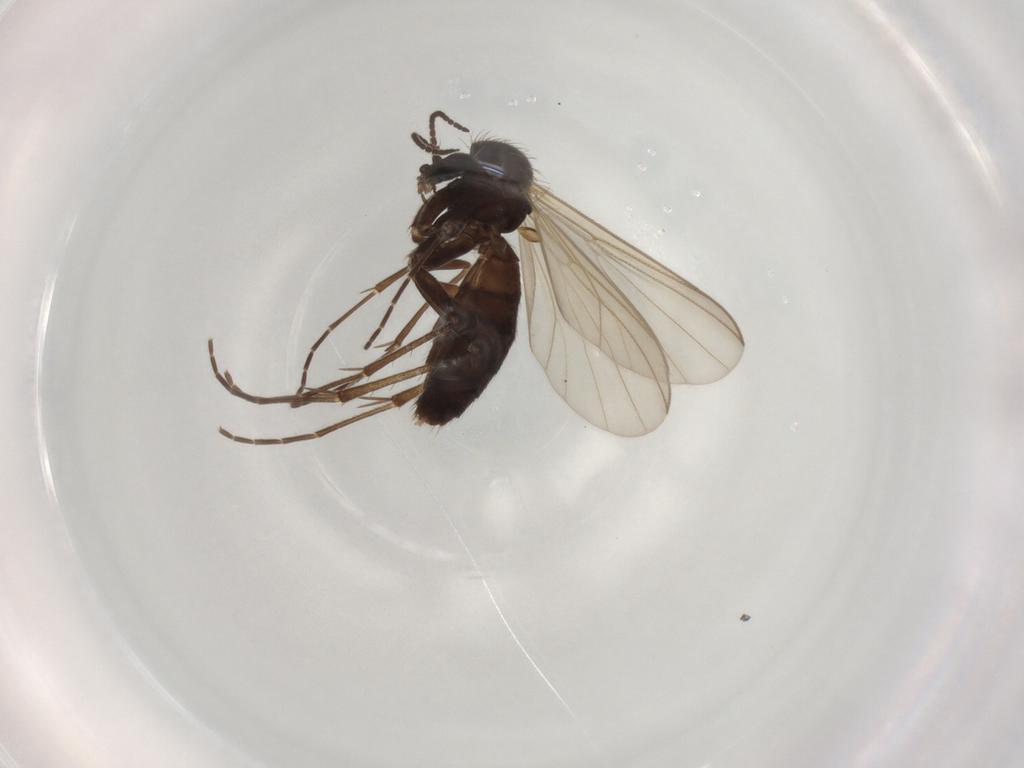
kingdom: Animalia
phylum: Arthropoda
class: Insecta
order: Diptera
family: Mycetophilidae
